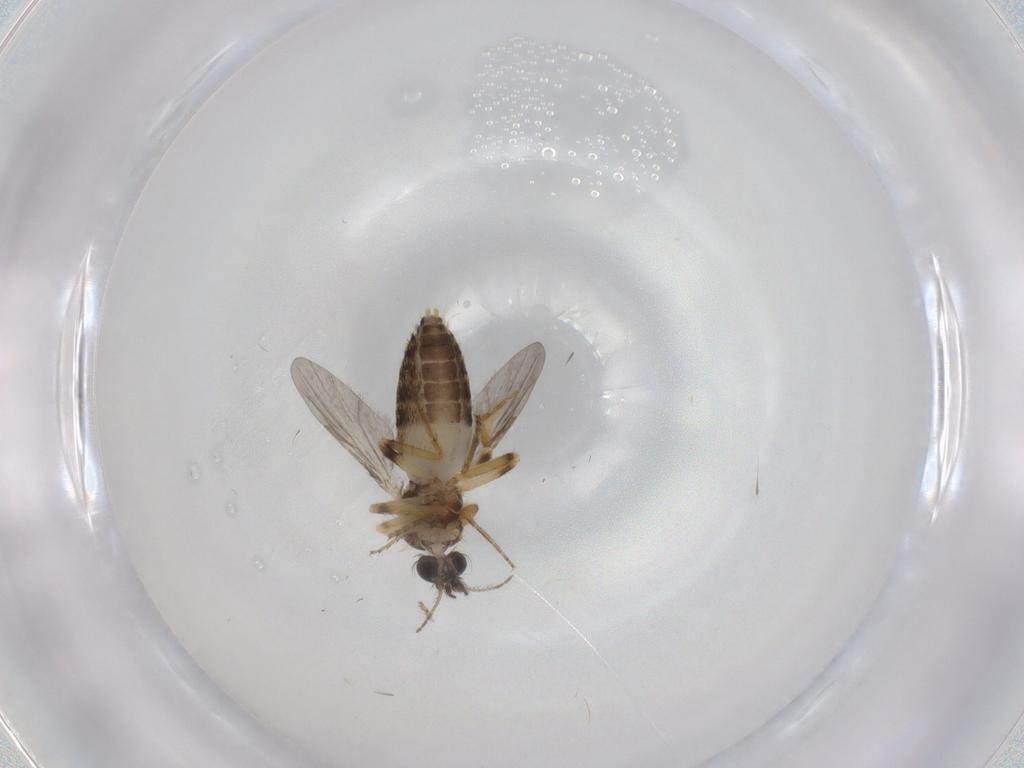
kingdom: Animalia
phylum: Arthropoda
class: Insecta
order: Diptera
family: Ceratopogonidae
